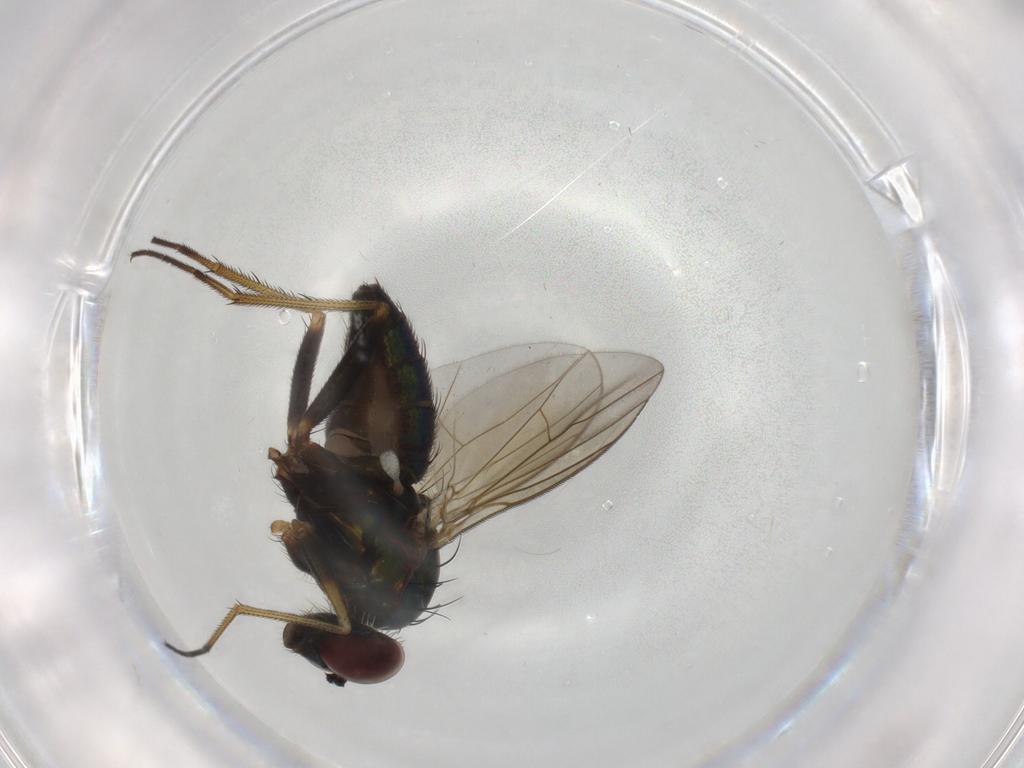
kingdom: Animalia
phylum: Arthropoda
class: Insecta
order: Diptera
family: Dolichopodidae
